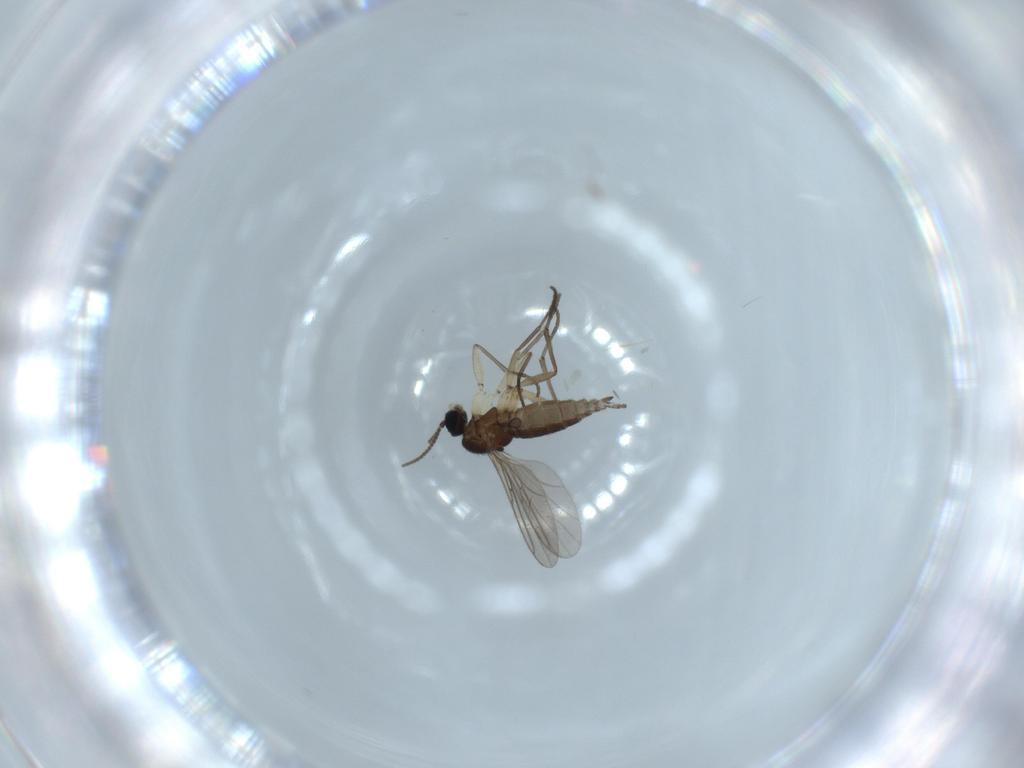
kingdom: Animalia
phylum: Arthropoda
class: Insecta
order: Diptera
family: Sciaridae
